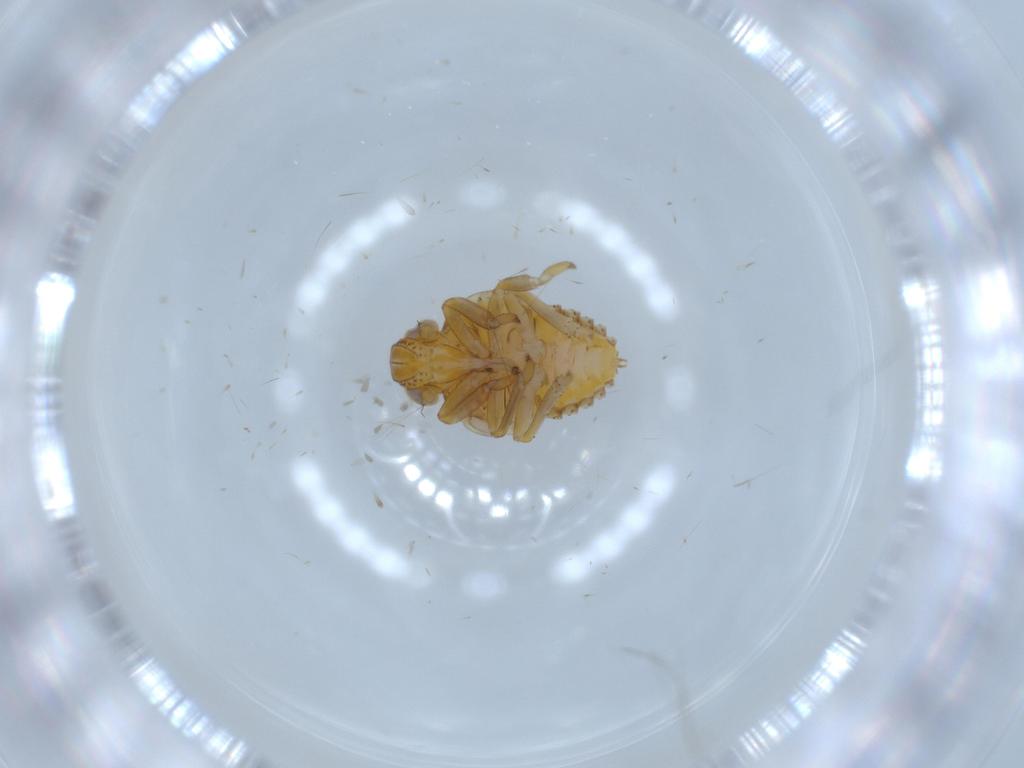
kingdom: Animalia
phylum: Arthropoda
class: Insecta
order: Hemiptera
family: Issidae
